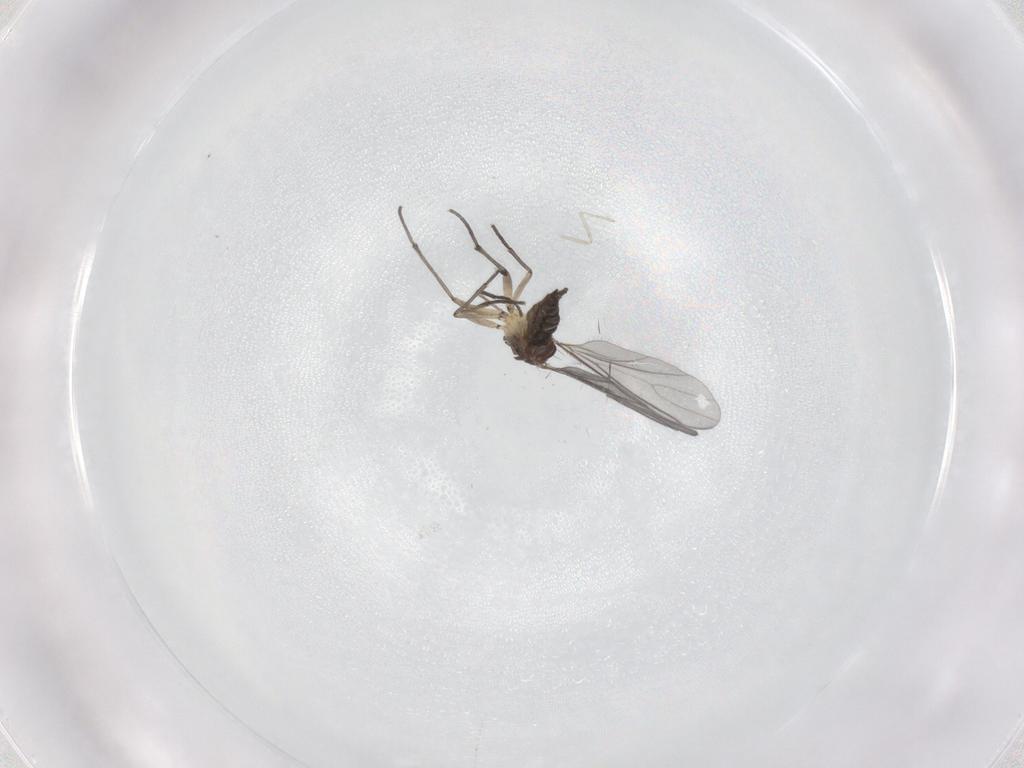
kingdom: Animalia
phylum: Arthropoda
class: Insecta
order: Diptera
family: Sciaridae
